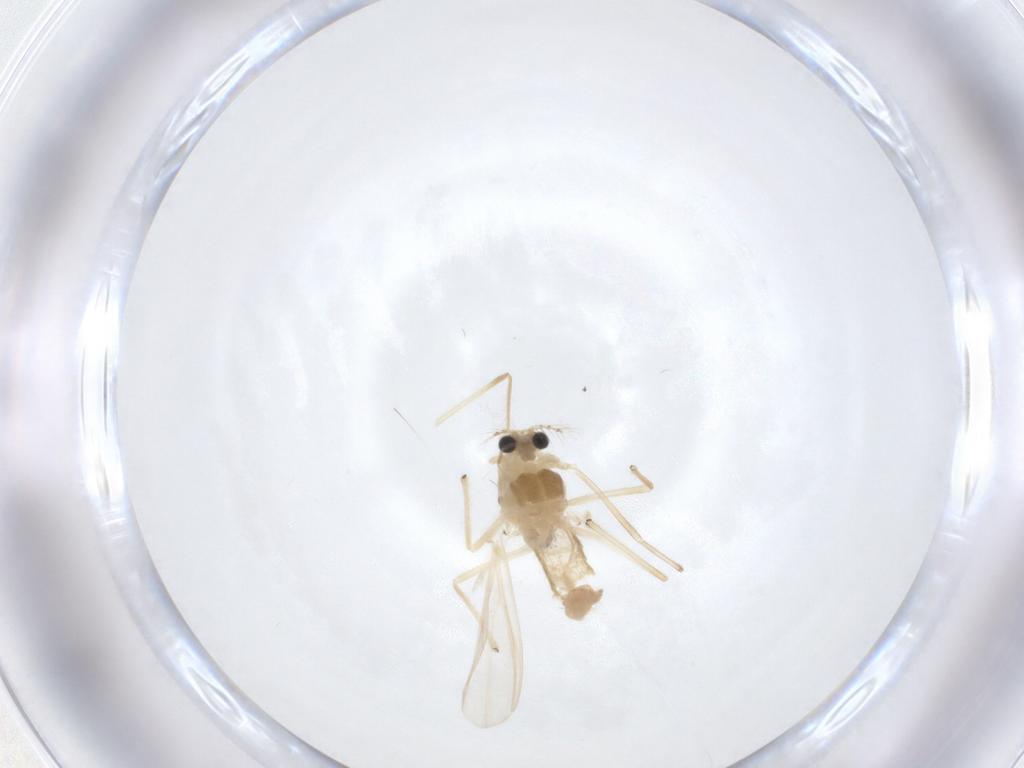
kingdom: Animalia
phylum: Arthropoda
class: Insecta
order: Diptera
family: Chironomidae
